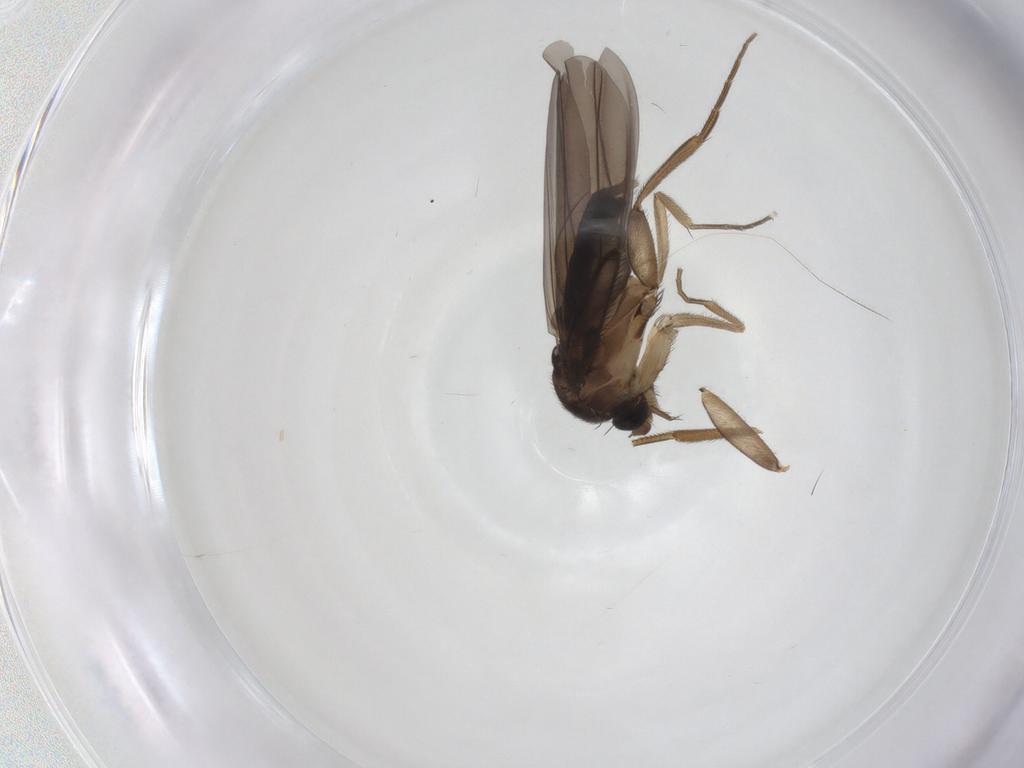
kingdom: Animalia
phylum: Arthropoda
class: Insecta
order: Diptera
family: Phoridae
